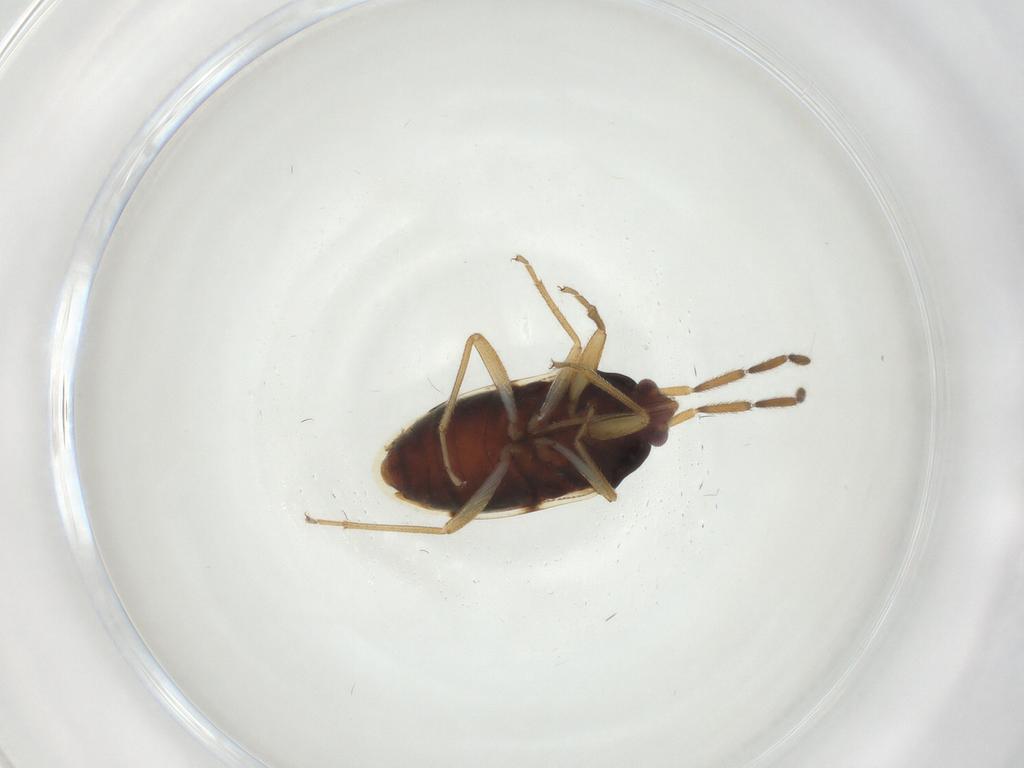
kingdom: Animalia
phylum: Arthropoda
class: Insecta
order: Hemiptera
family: Rhyparochromidae
